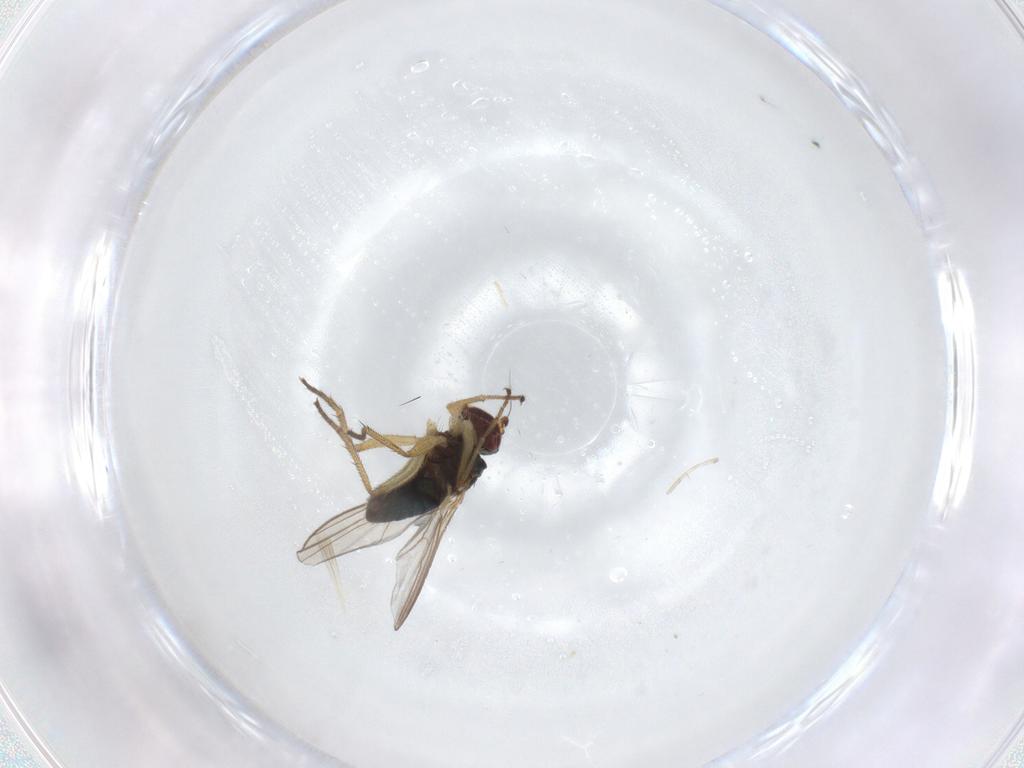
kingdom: Animalia
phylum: Arthropoda
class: Insecta
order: Diptera
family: Dolichopodidae
